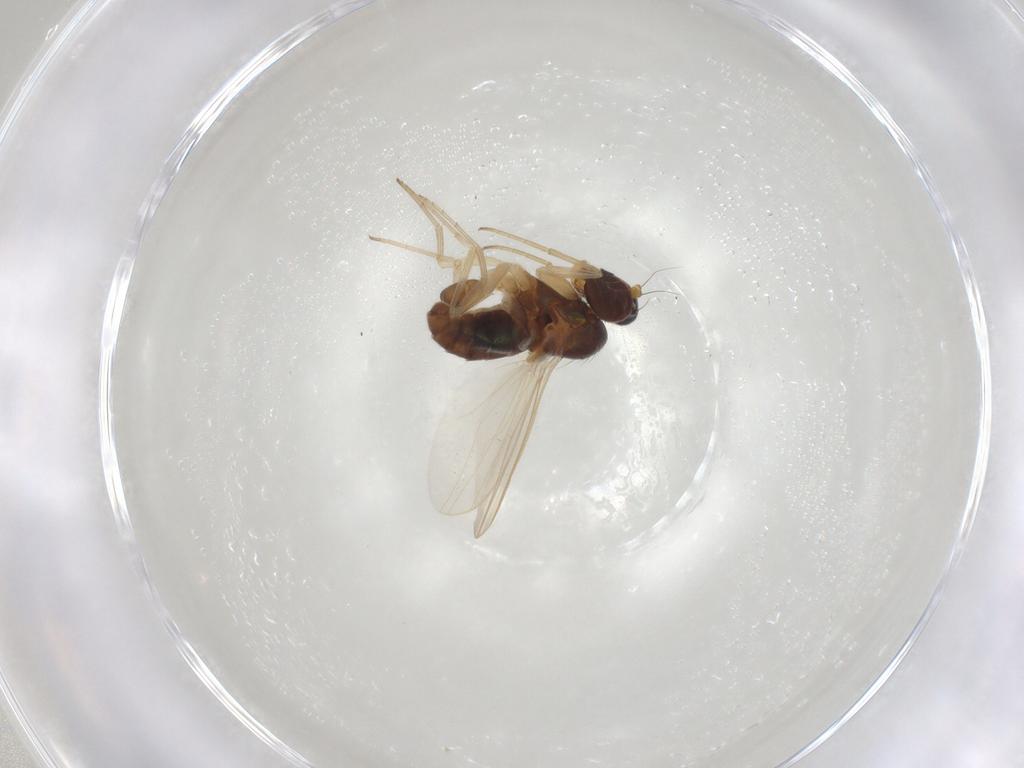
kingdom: Animalia
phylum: Arthropoda
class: Insecta
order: Diptera
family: Dolichopodidae
